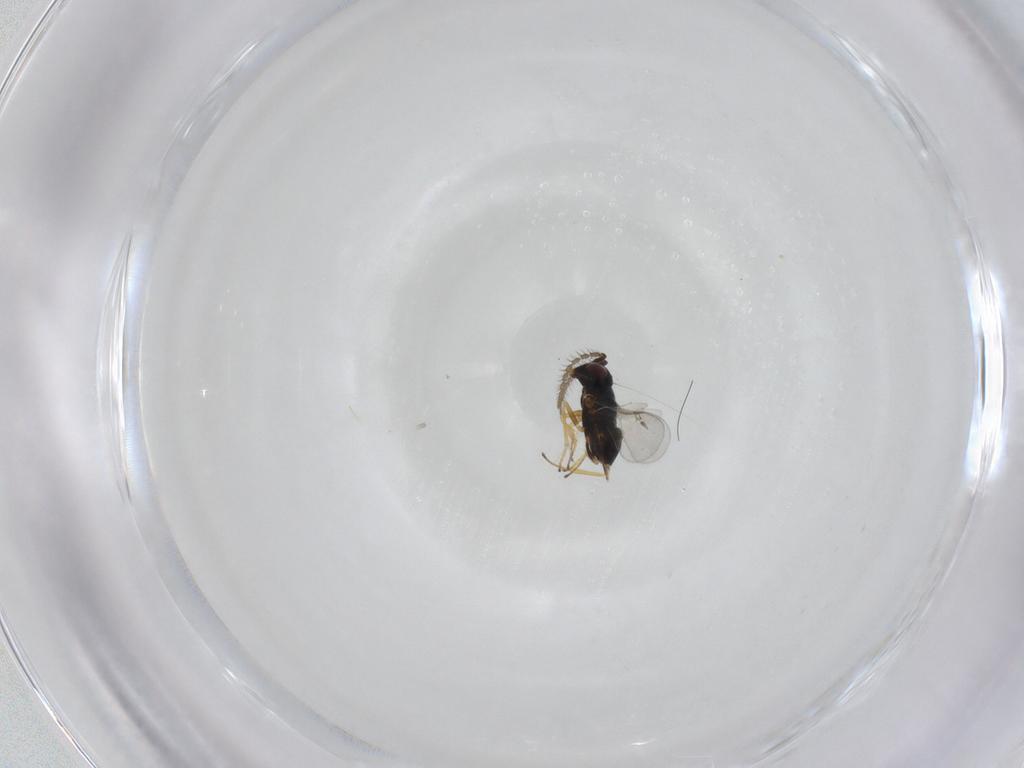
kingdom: Animalia
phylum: Arthropoda
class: Insecta
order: Hymenoptera
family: Encyrtidae
